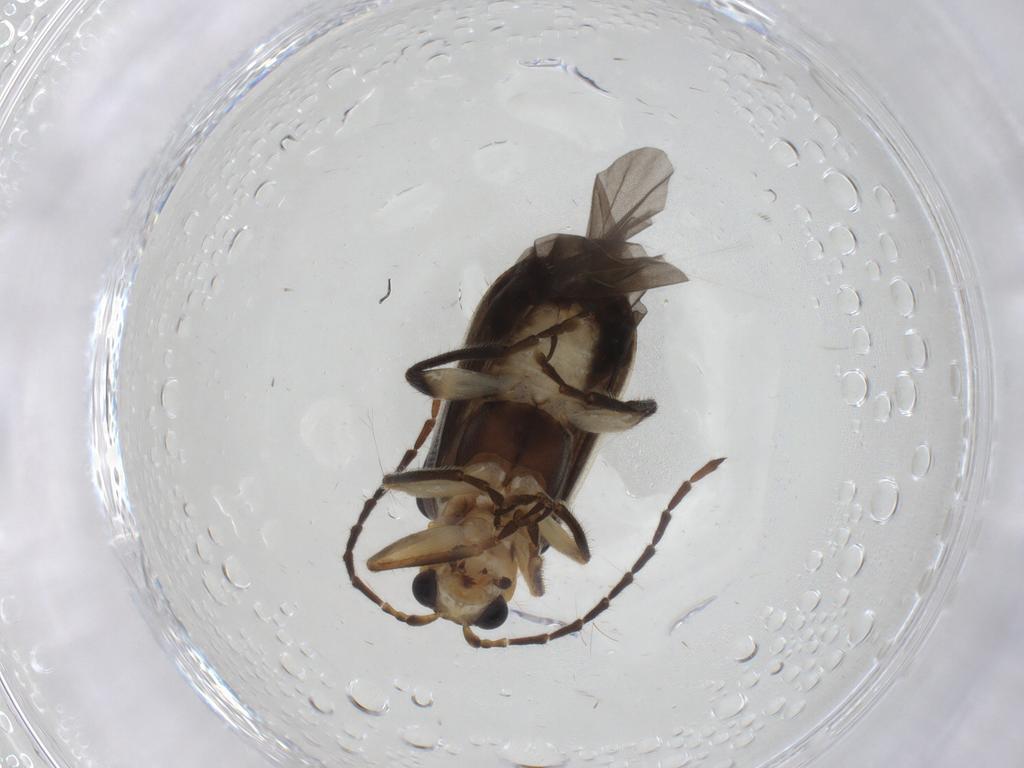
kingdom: Animalia
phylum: Arthropoda
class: Insecta
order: Coleoptera
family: Chrysomelidae
